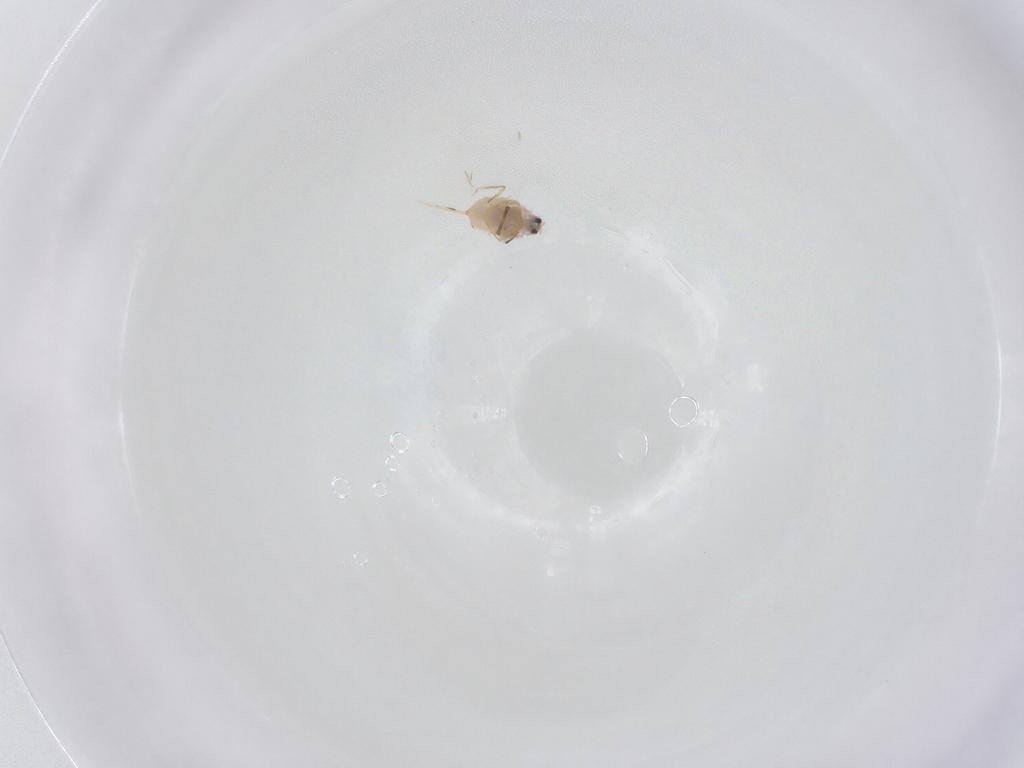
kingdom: Animalia
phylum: Arthropoda
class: Insecta
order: Hemiptera
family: Diaspididae
